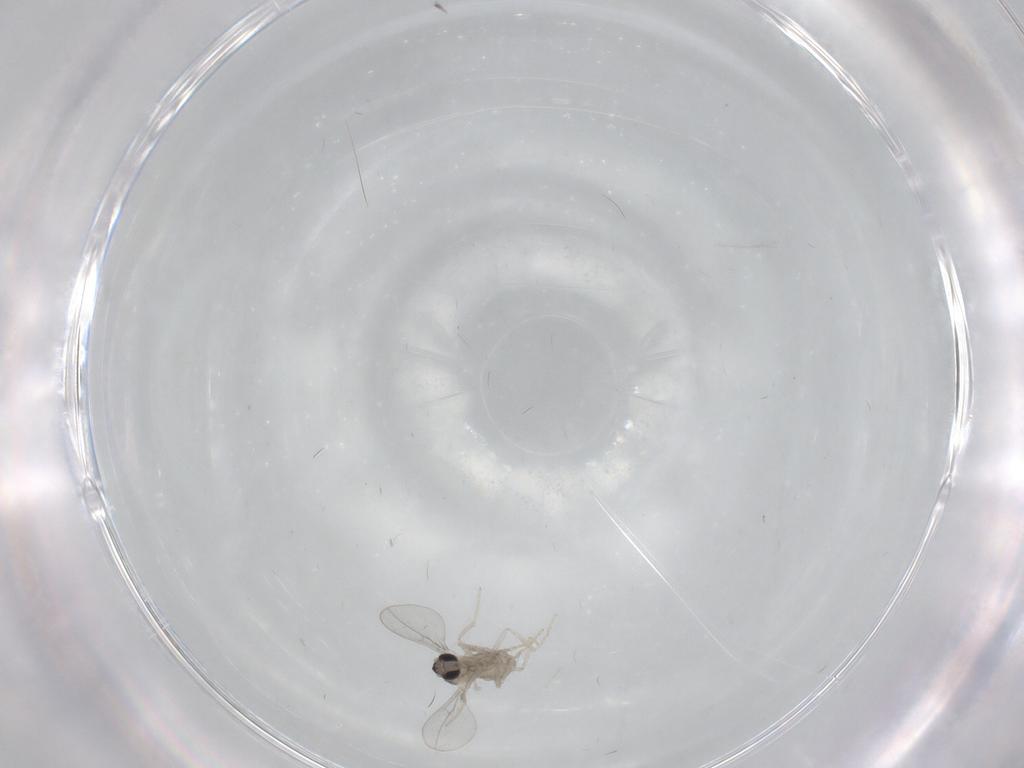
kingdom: Animalia
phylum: Arthropoda
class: Insecta
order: Diptera
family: Cecidomyiidae
